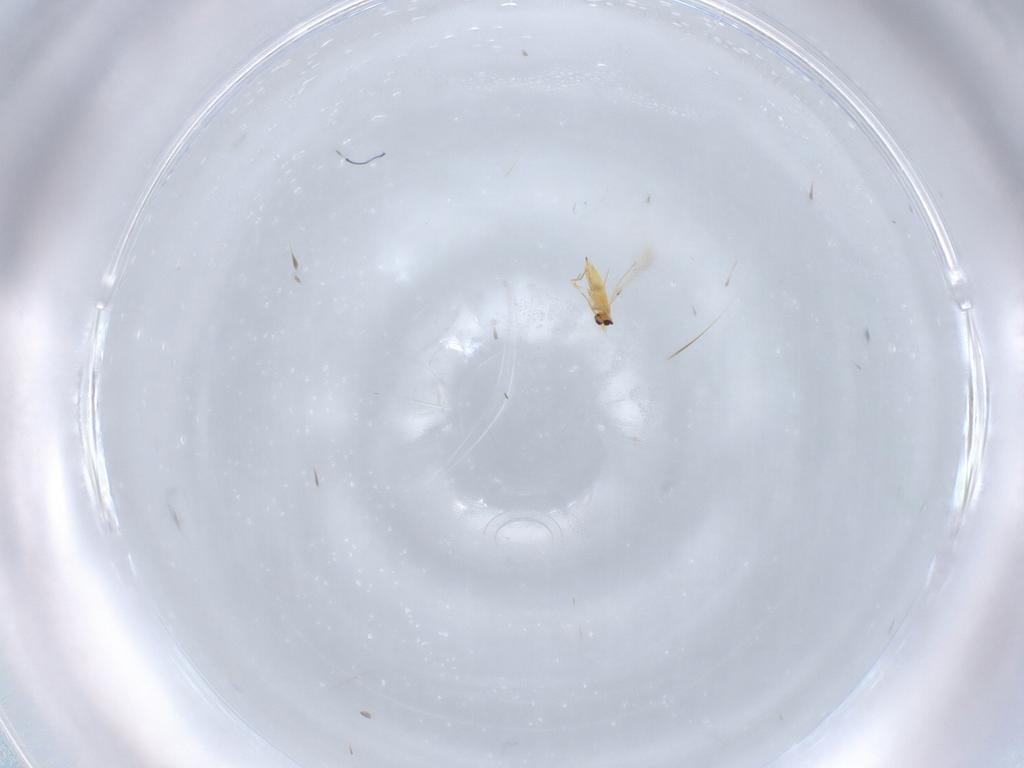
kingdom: Animalia
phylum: Arthropoda
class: Insecta
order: Hymenoptera
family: Mymaridae
